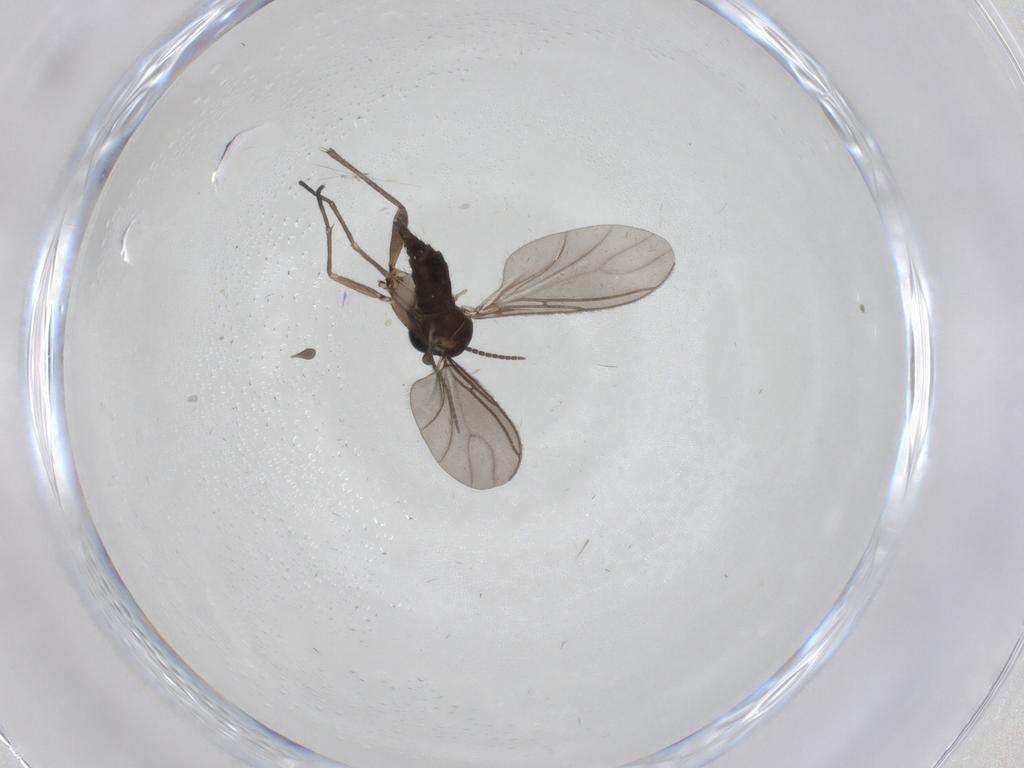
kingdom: Animalia
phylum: Arthropoda
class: Insecta
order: Diptera
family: Sciaridae
